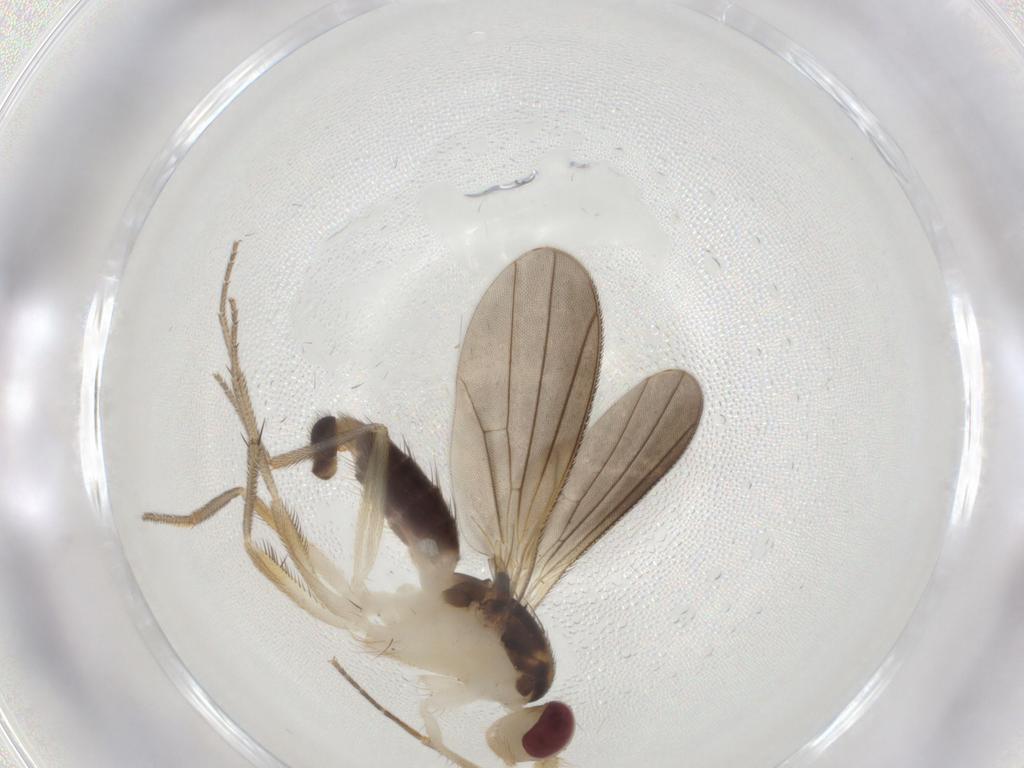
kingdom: Animalia
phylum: Arthropoda
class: Insecta
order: Diptera
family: Clusiidae
